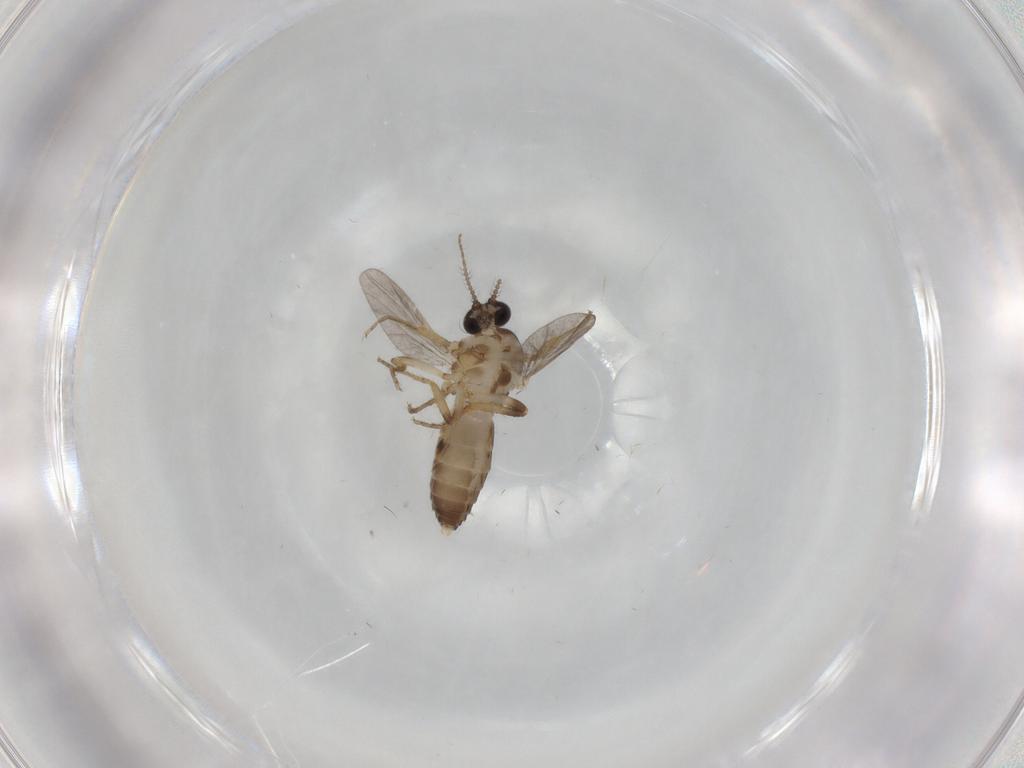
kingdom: Animalia
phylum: Arthropoda
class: Insecta
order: Diptera
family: Ceratopogonidae
